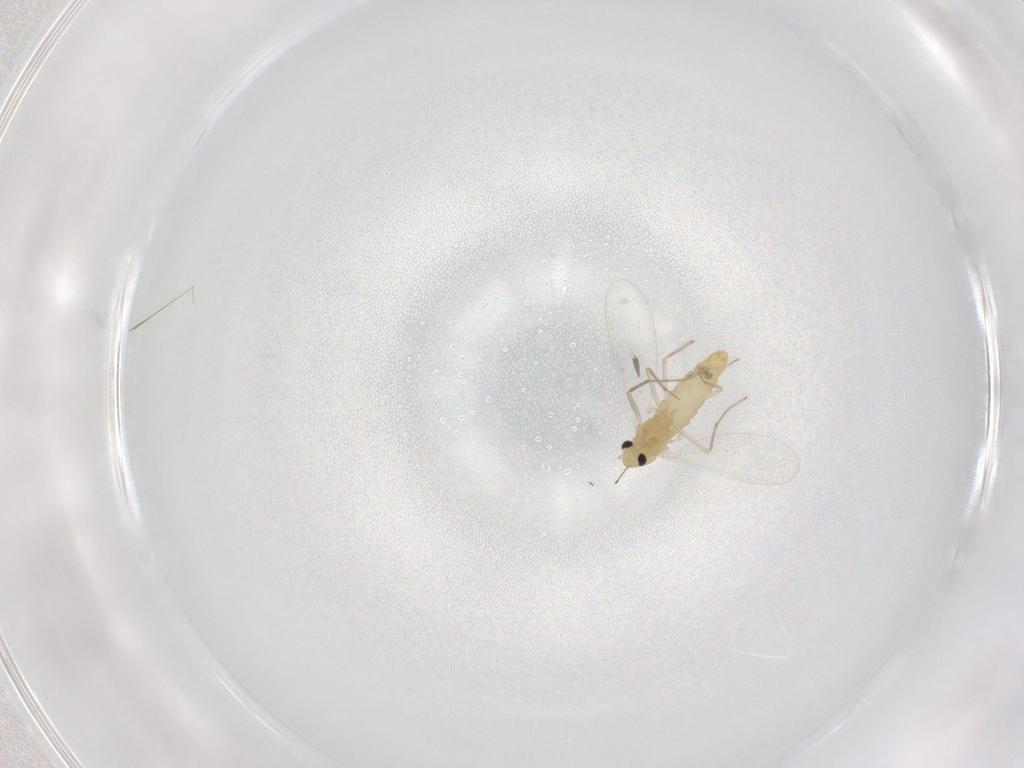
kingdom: Animalia
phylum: Arthropoda
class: Insecta
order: Diptera
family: Chironomidae
